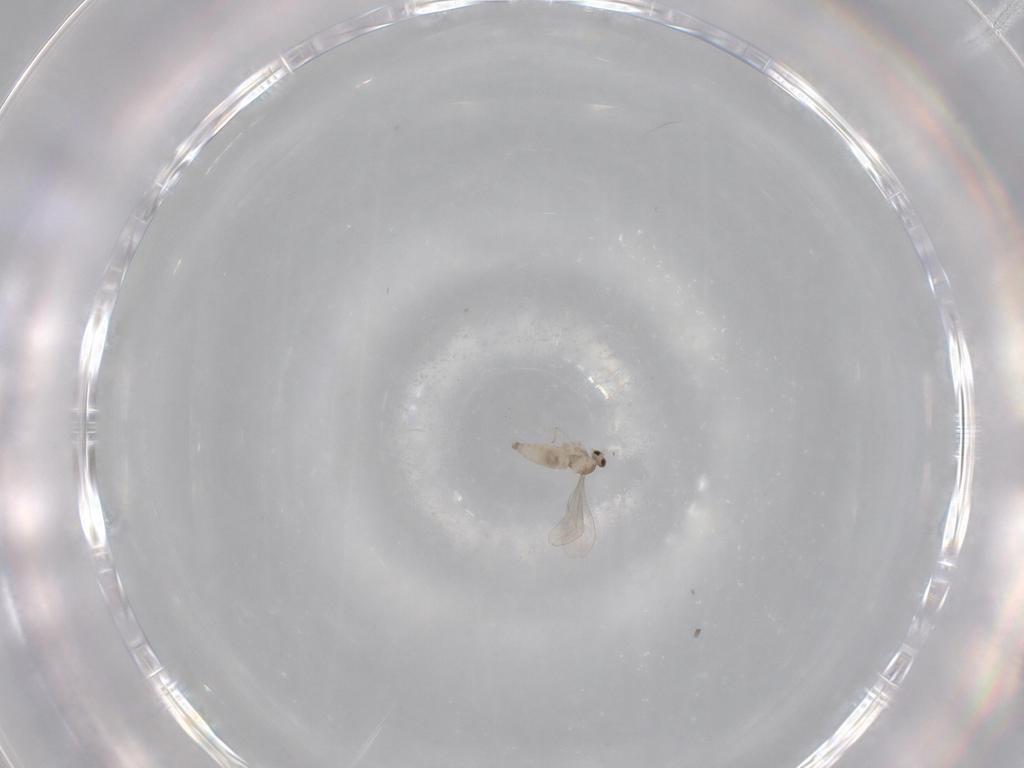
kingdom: Animalia
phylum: Arthropoda
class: Insecta
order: Diptera
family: Cecidomyiidae
